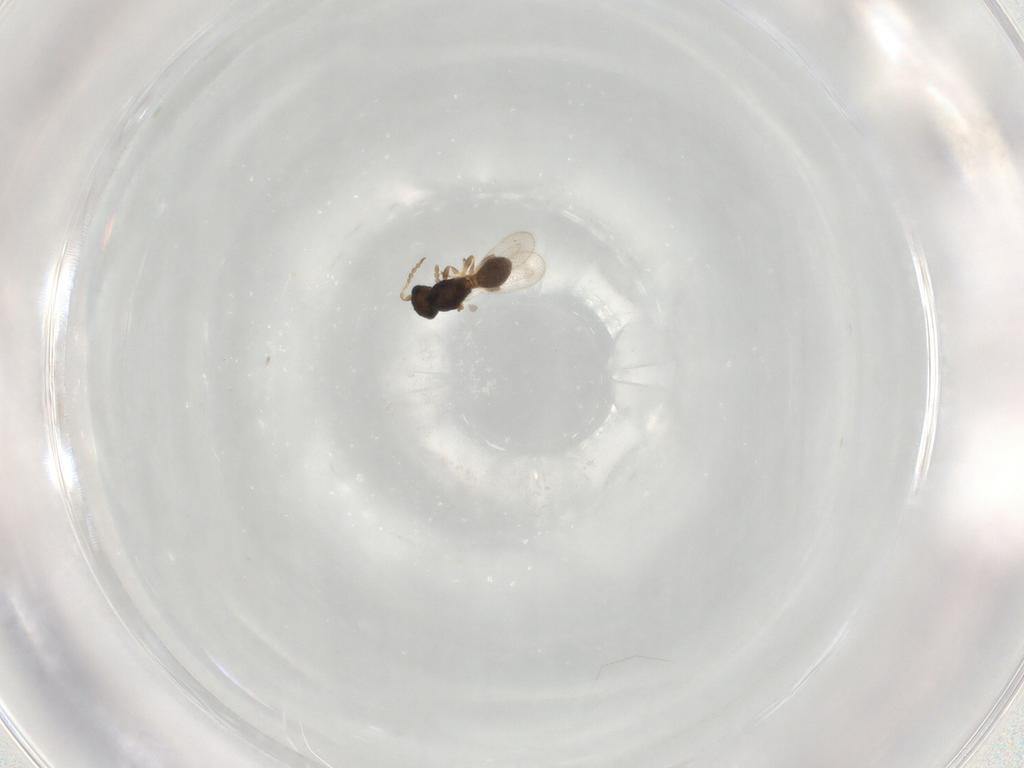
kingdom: Animalia
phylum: Arthropoda
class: Insecta
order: Hymenoptera
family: Platygastridae
